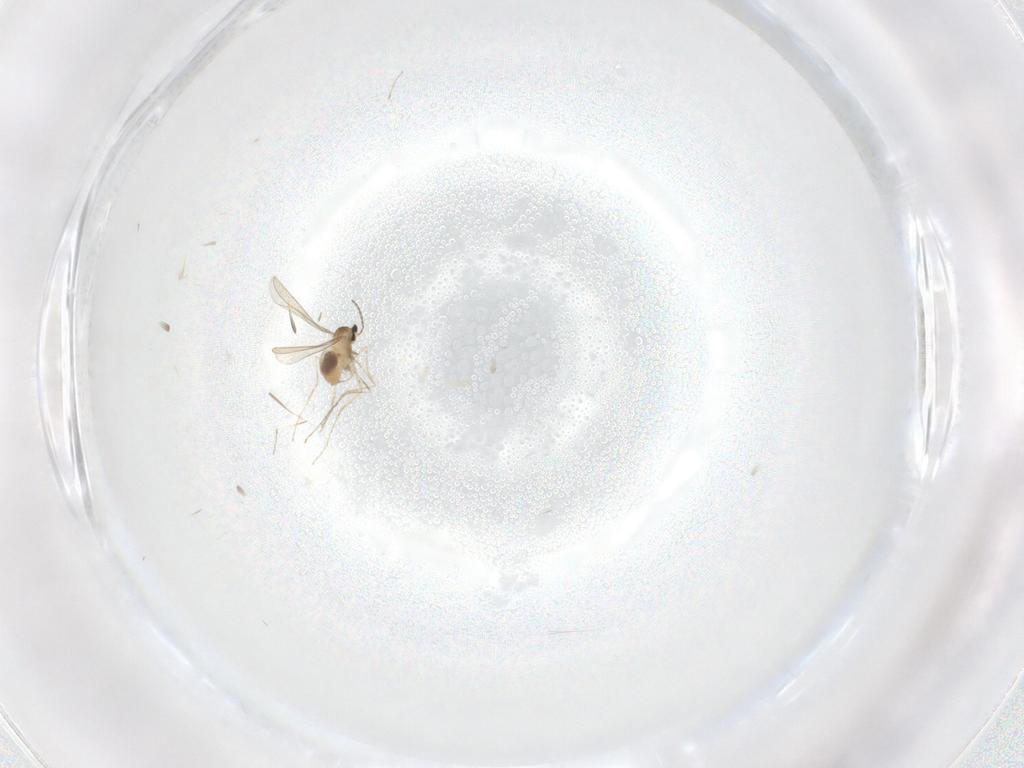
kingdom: Animalia
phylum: Arthropoda
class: Insecta
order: Diptera
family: Cecidomyiidae
